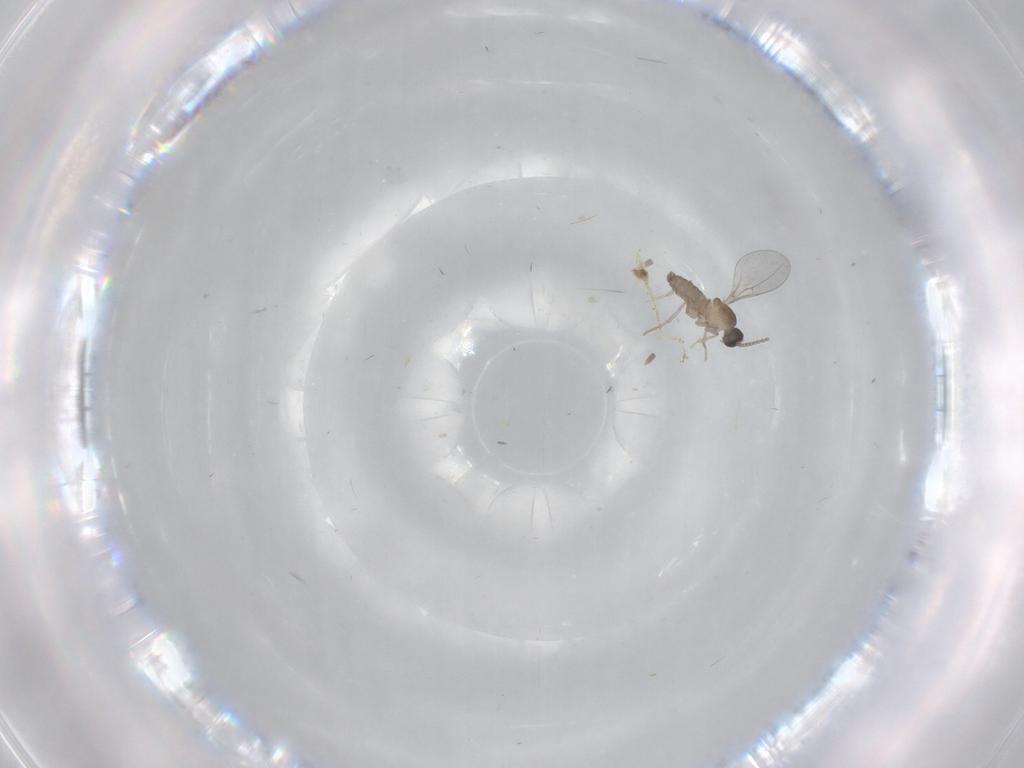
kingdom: Animalia
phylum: Arthropoda
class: Insecta
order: Diptera
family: Cecidomyiidae
